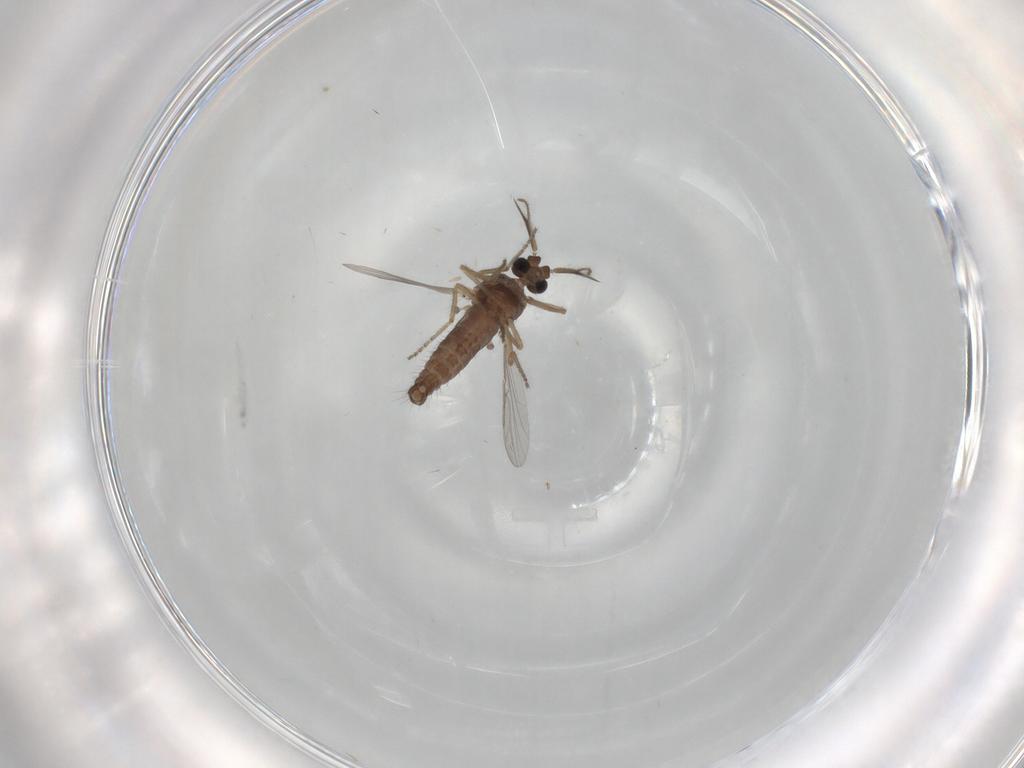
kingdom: Animalia
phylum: Arthropoda
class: Insecta
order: Diptera
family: Ceratopogonidae
